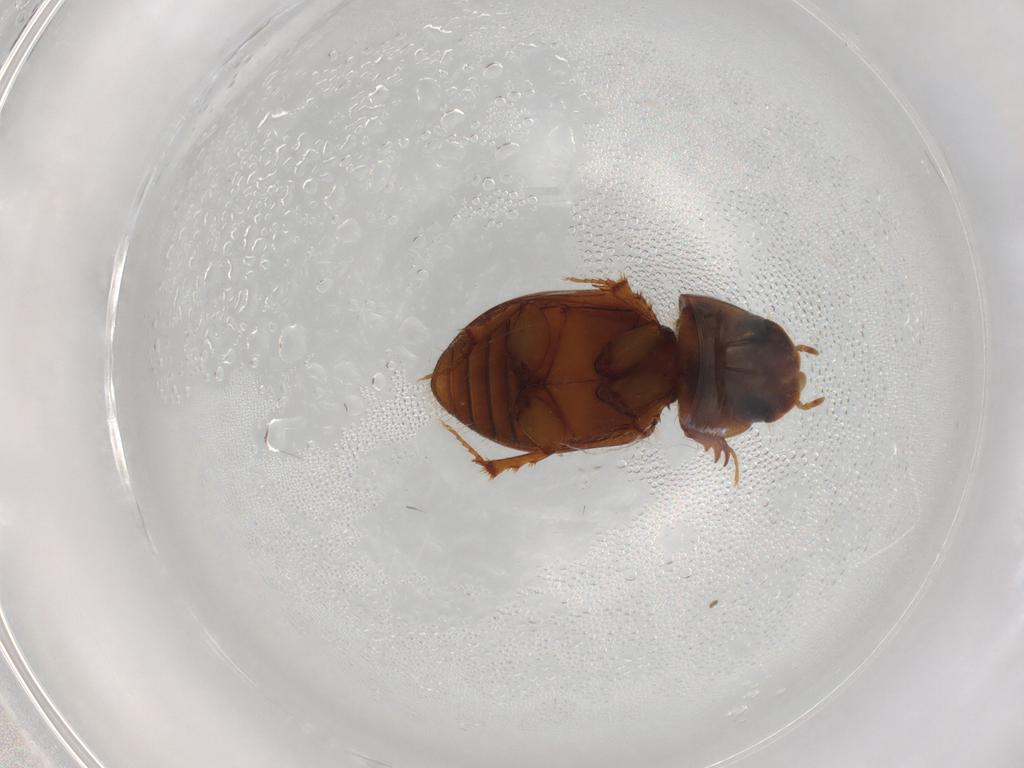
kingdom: Animalia
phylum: Arthropoda
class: Insecta
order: Coleoptera
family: Scarabaeidae
